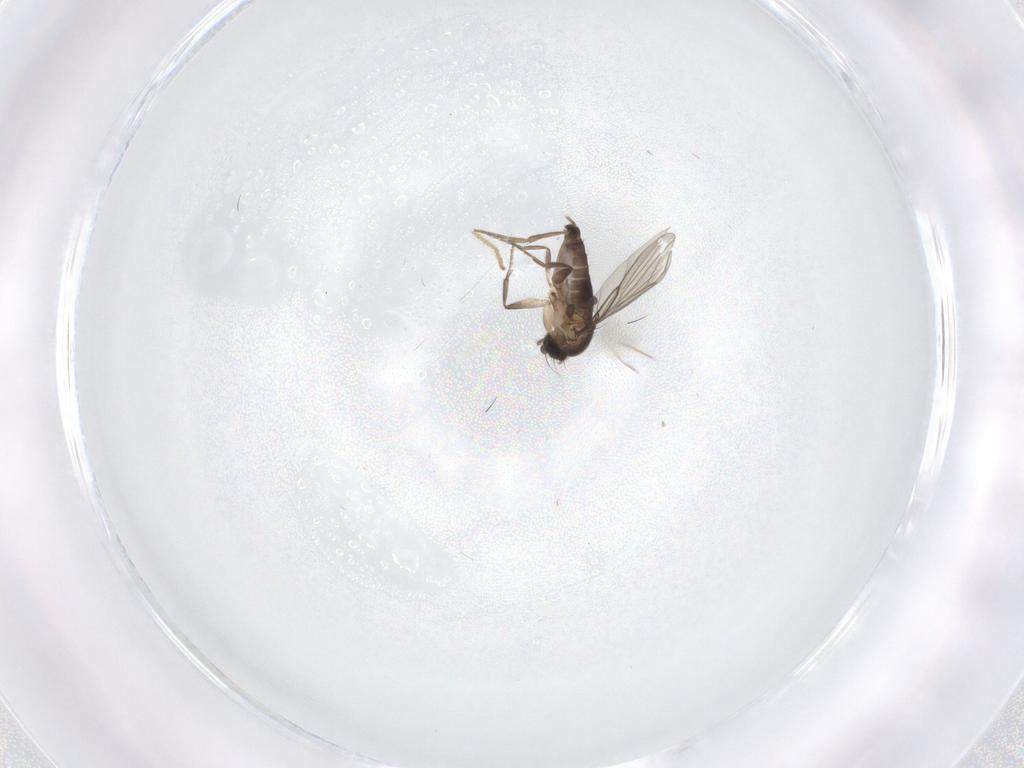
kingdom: Animalia
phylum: Arthropoda
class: Insecta
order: Diptera
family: Phoridae
